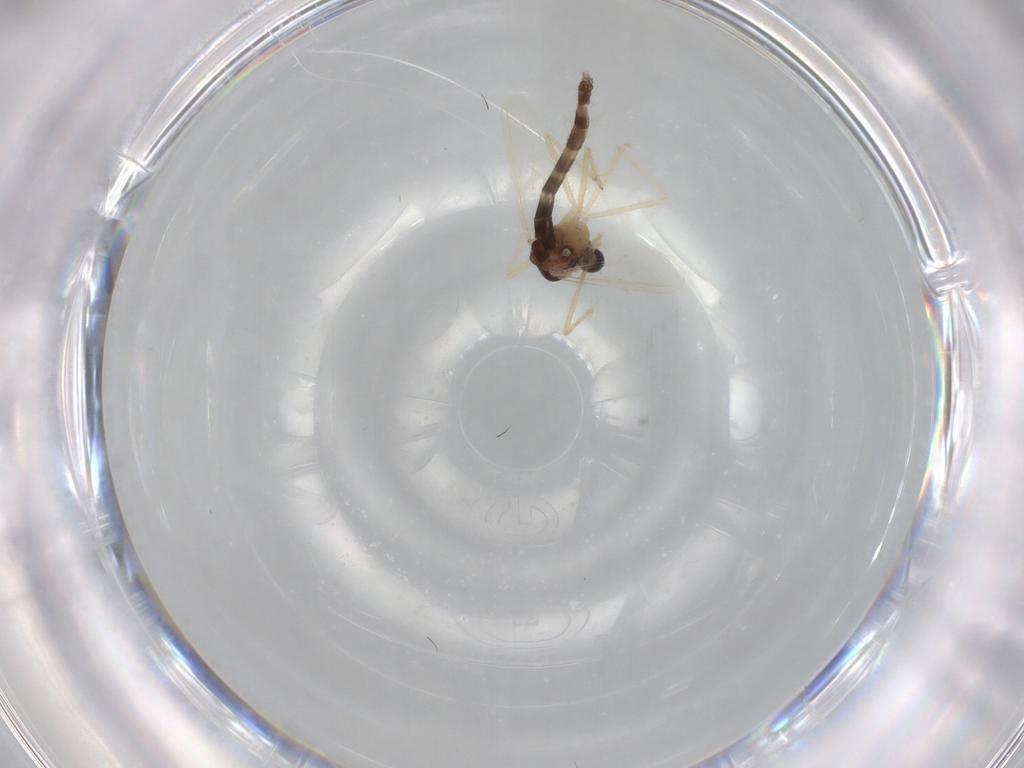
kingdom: Animalia
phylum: Arthropoda
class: Insecta
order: Diptera
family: Chironomidae
